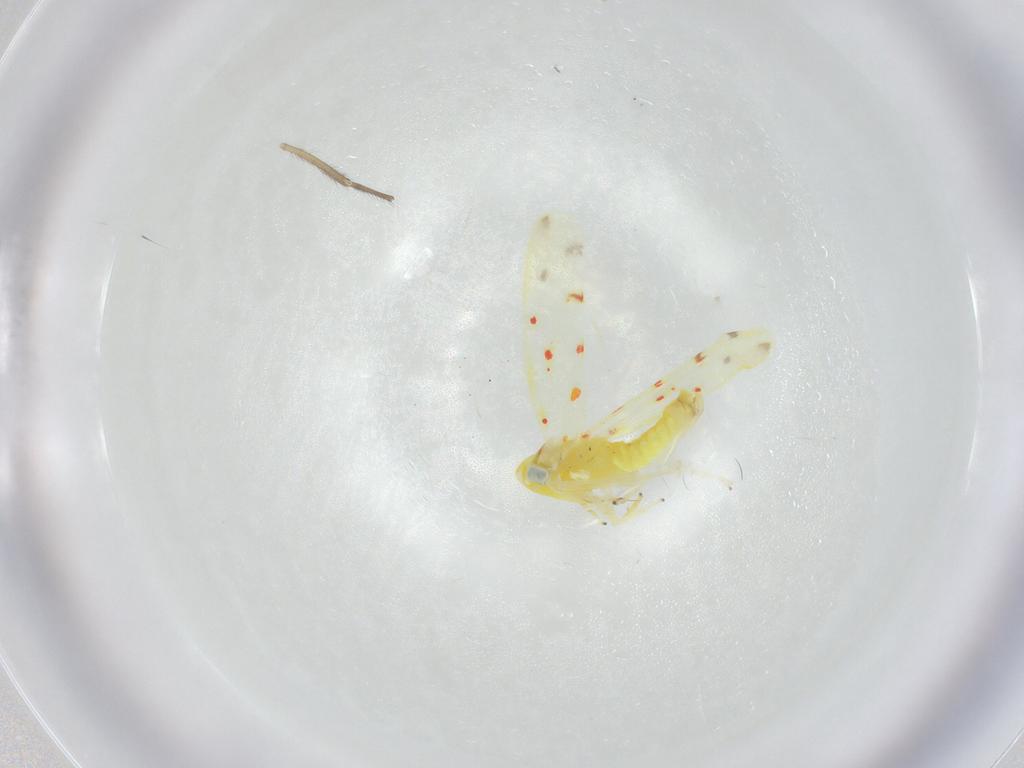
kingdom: Animalia
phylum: Arthropoda
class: Insecta
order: Hemiptera
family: Cicadellidae
